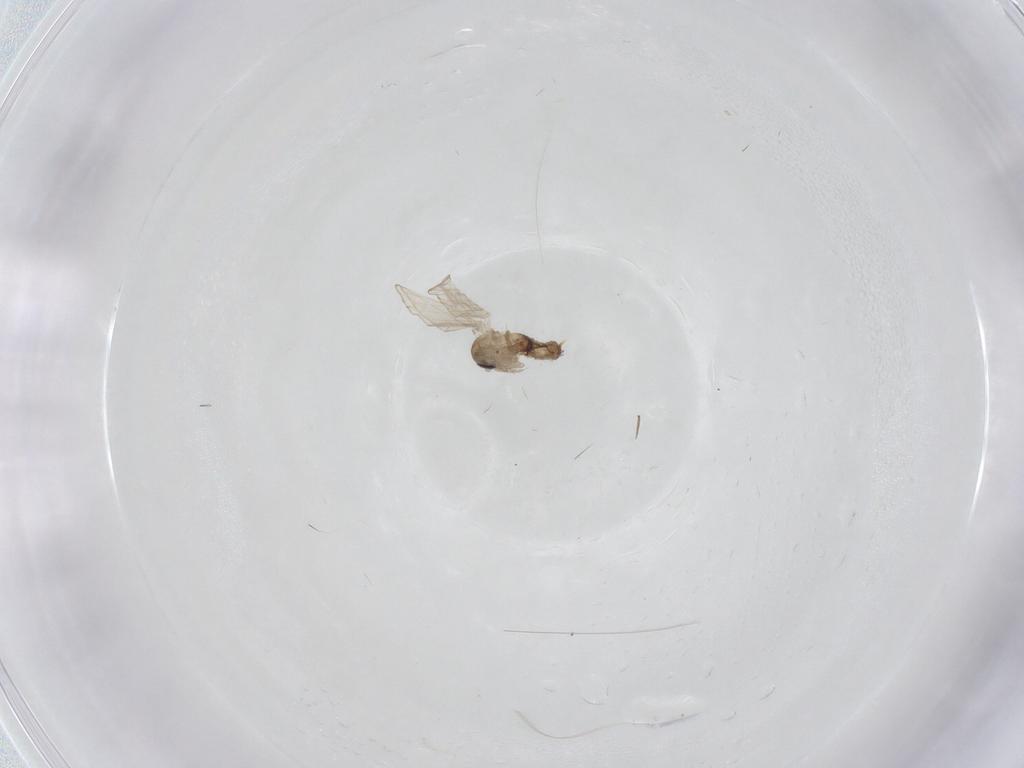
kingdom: Animalia
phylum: Arthropoda
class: Insecta
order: Diptera
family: Psychodidae
